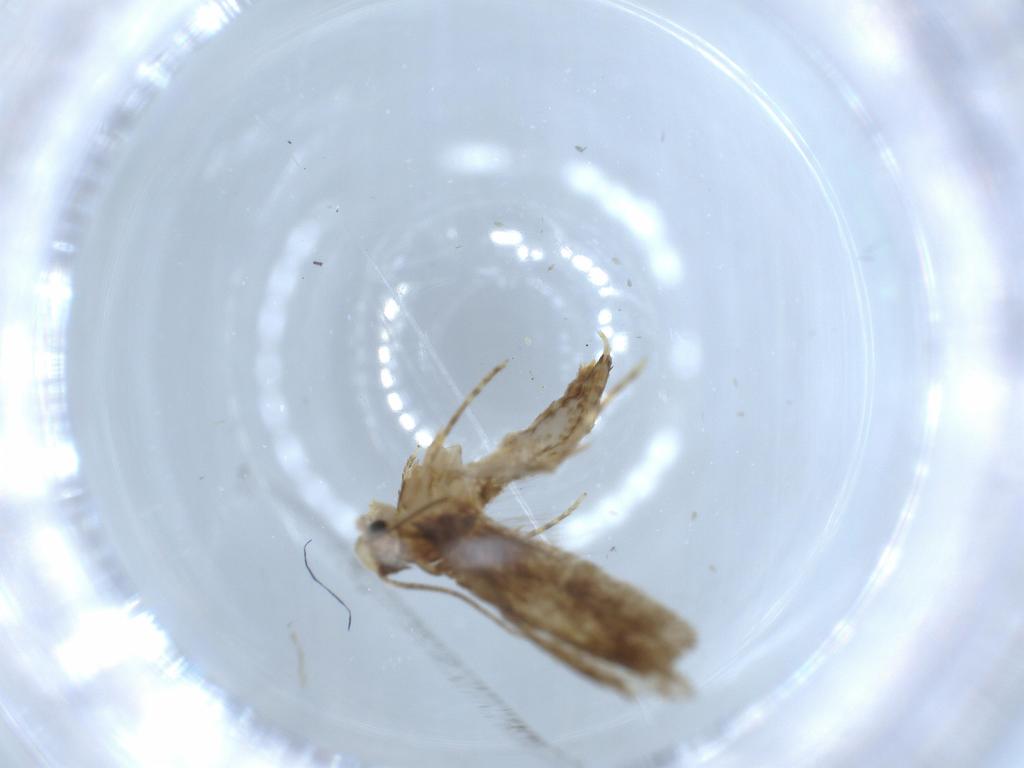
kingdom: Animalia
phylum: Arthropoda
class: Insecta
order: Lepidoptera
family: Tineidae
